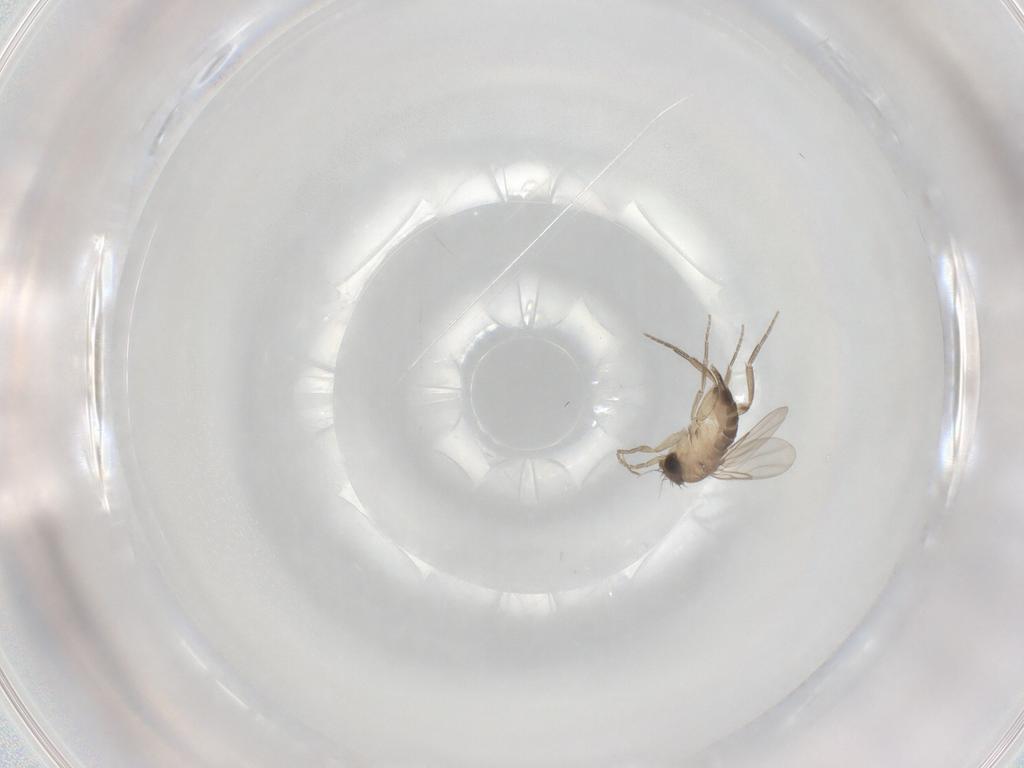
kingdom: Animalia
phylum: Arthropoda
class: Insecta
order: Diptera
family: Phoridae
